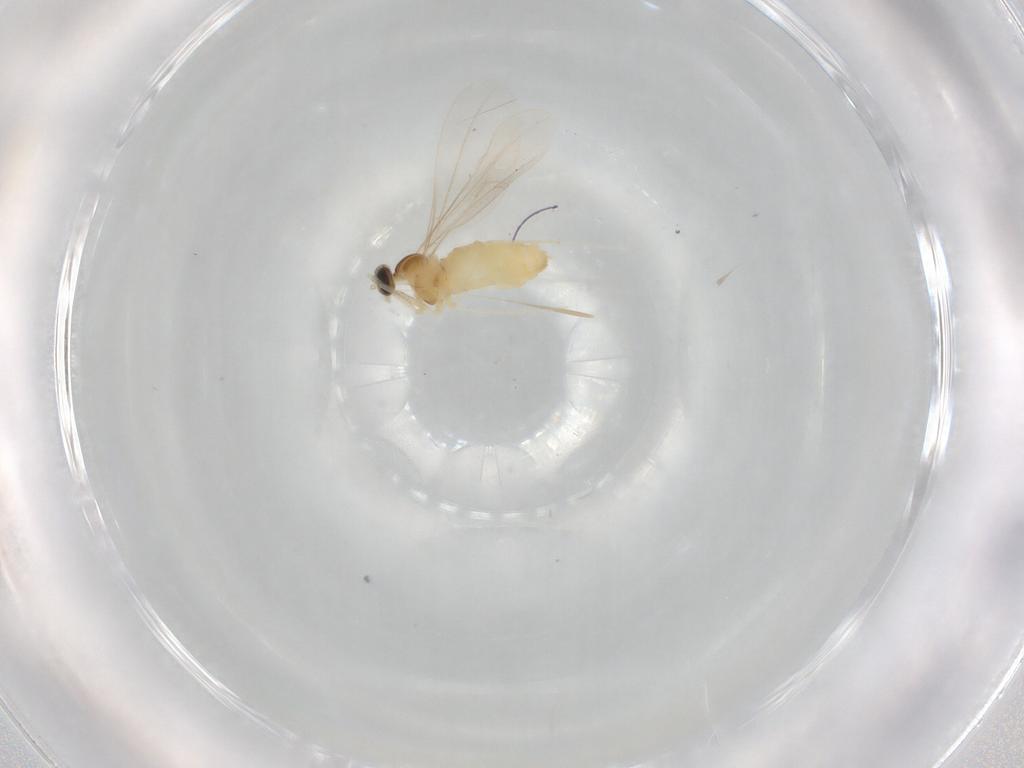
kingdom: Animalia
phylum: Arthropoda
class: Insecta
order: Diptera
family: Cecidomyiidae
